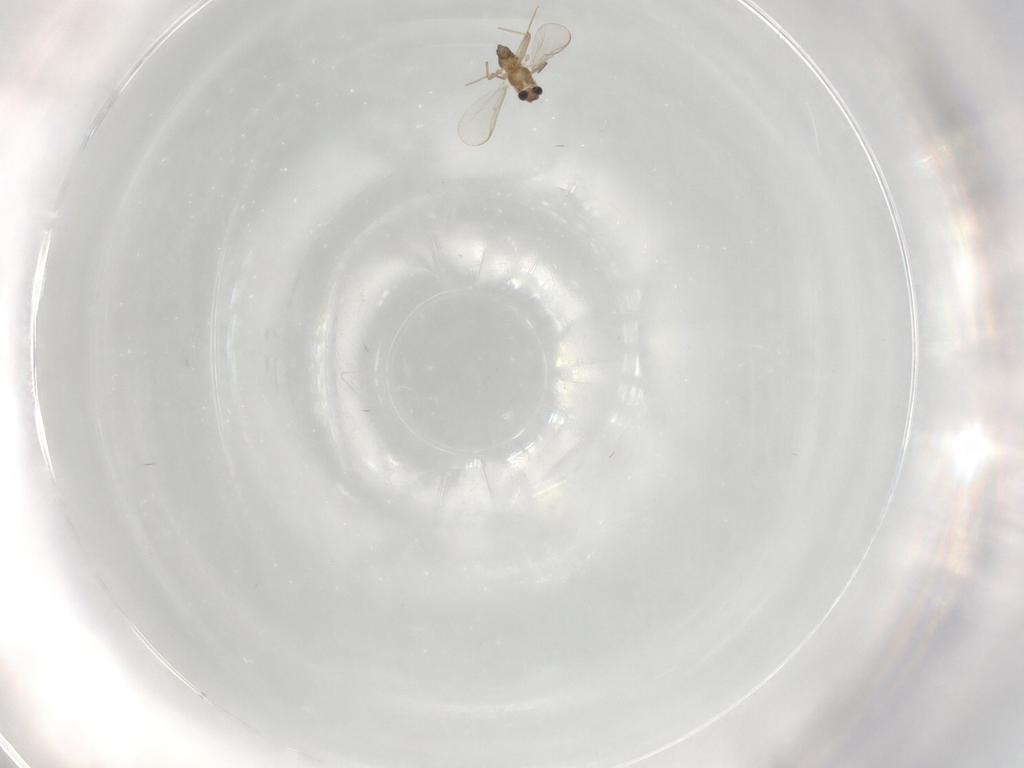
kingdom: Animalia
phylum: Arthropoda
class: Insecta
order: Diptera
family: Chironomidae
